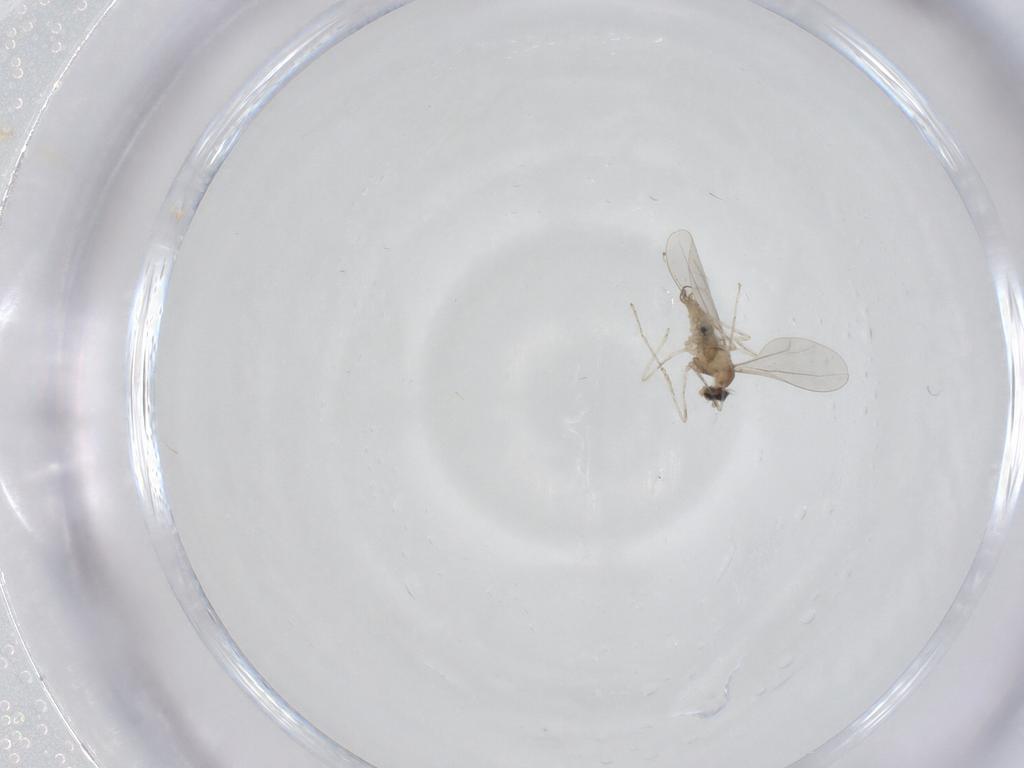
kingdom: Animalia
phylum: Arthropoda
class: Insecta
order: Diptera
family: Cecidomyiidae
